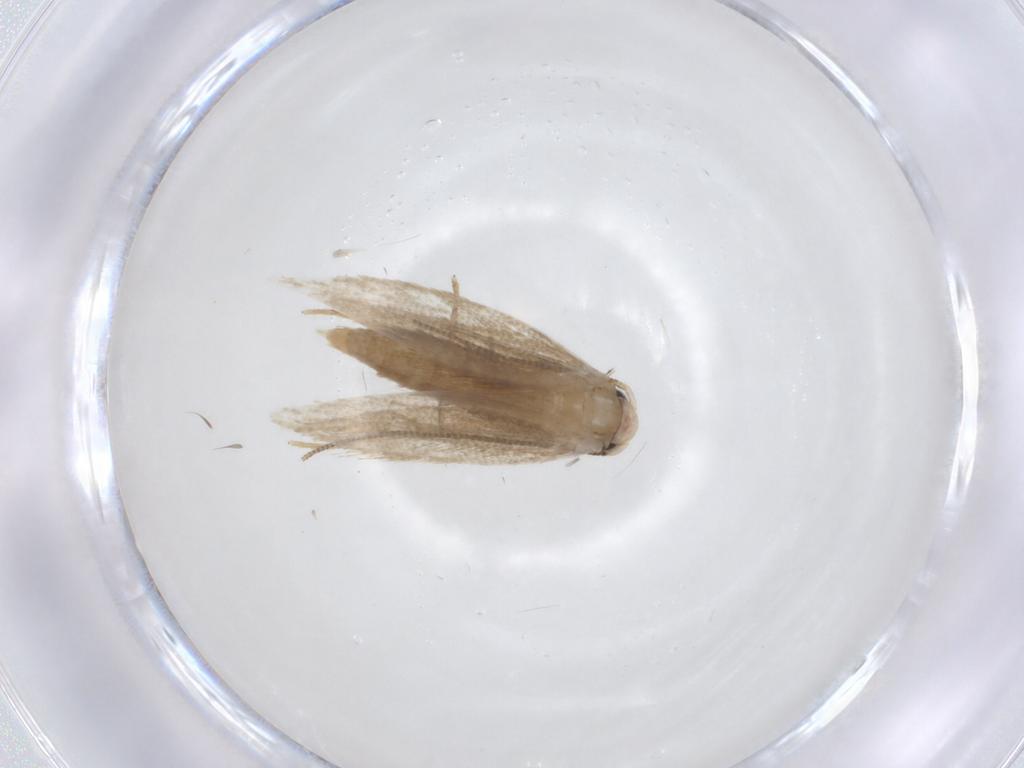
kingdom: Animalia
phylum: Arthropoda
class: Insecta
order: Lepidoptera
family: Tineidae
